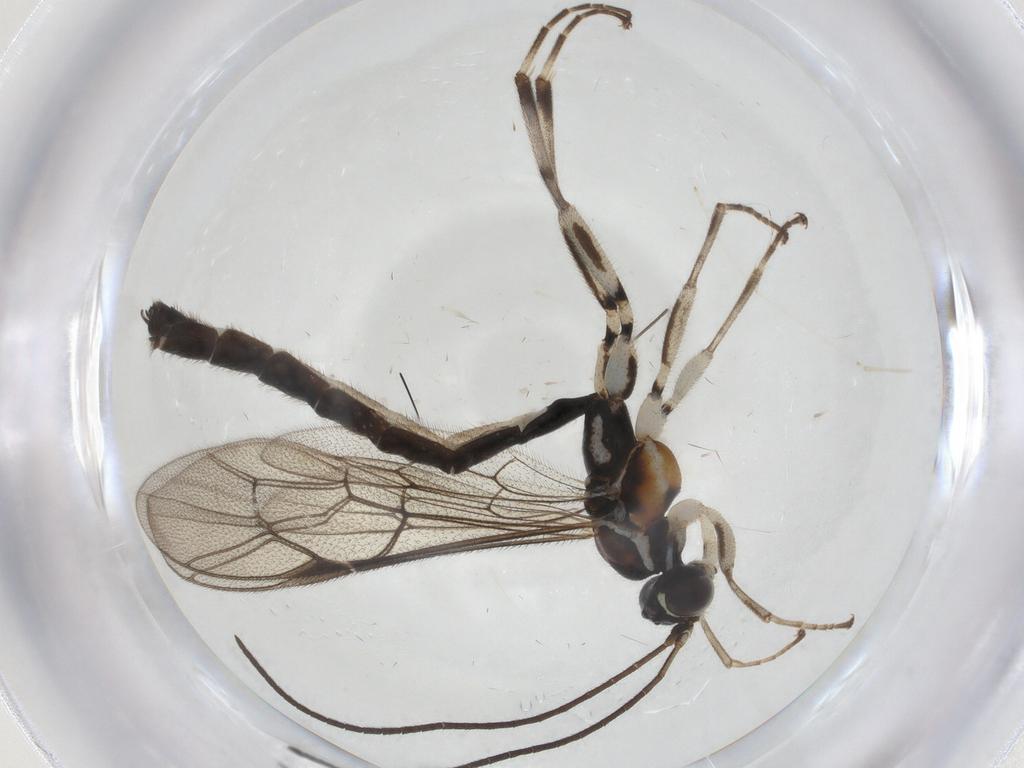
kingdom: Animalia
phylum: Arthropoda
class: Insecta
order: Hymenoptera
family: Ichneumonidae
